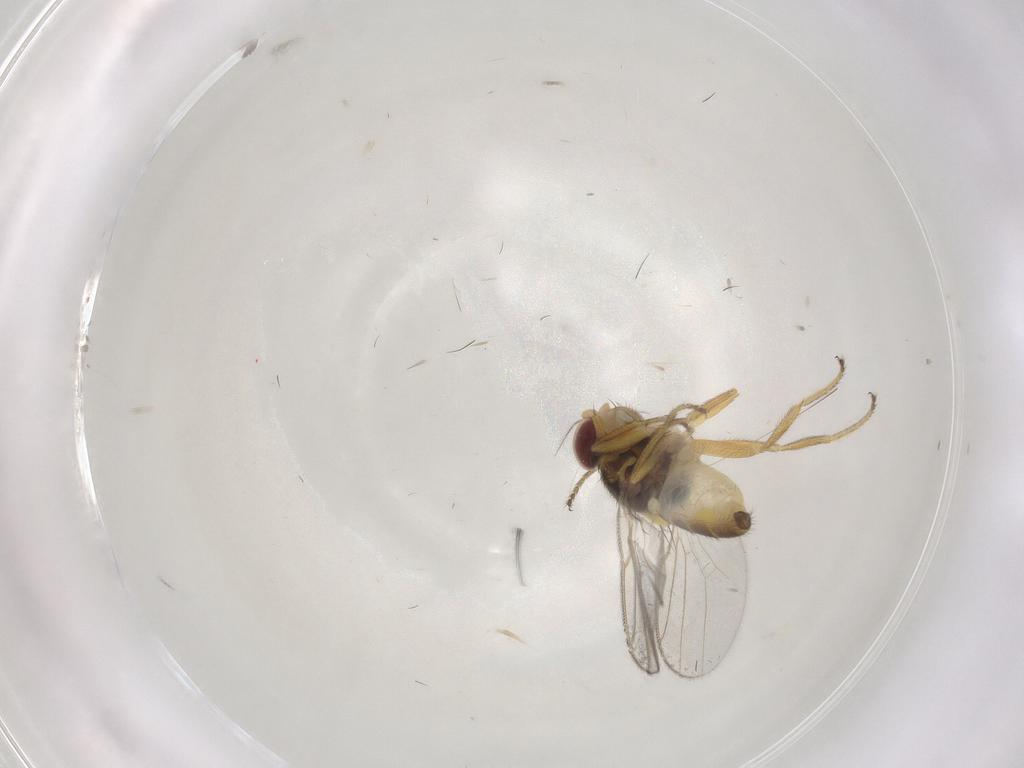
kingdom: Animalia
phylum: Arthropoda
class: Insecta
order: Diptera
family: Chloropidae
